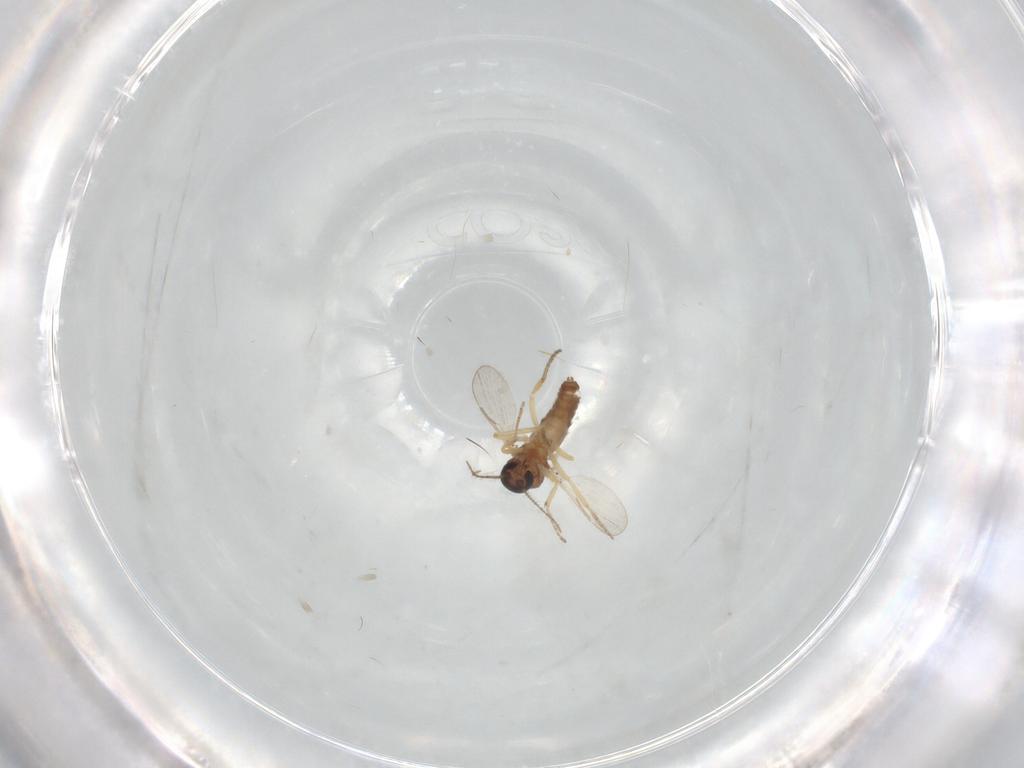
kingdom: Animalia
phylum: Arthropoda
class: Insecta
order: Diptera
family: Ceratopogonidae
